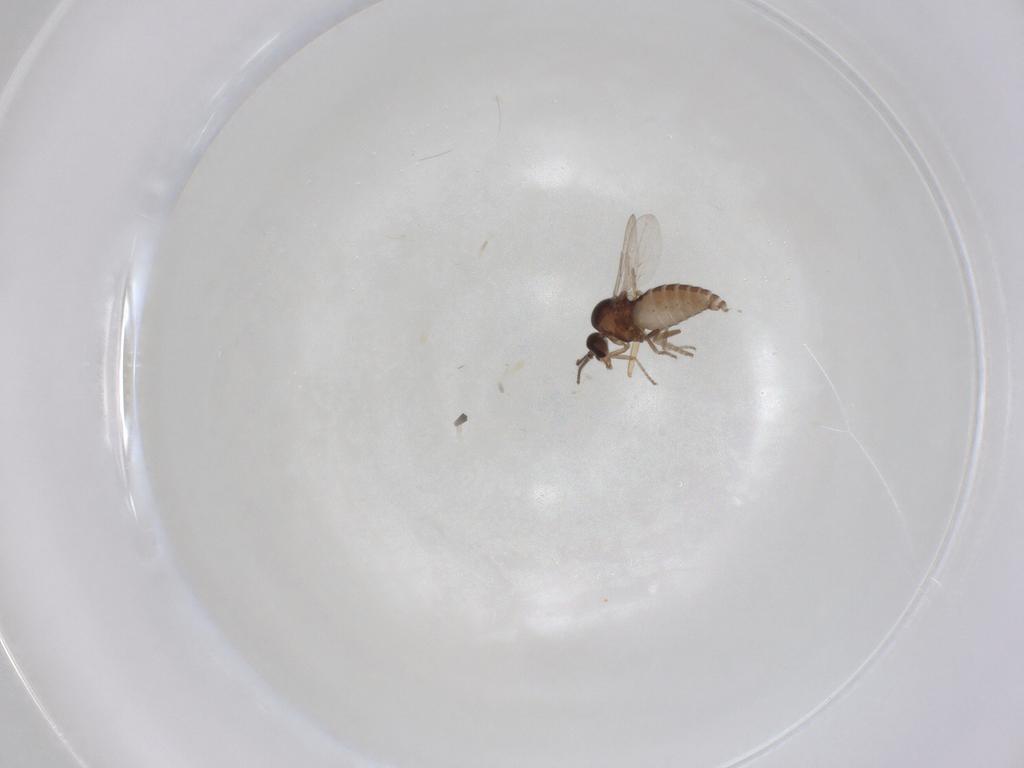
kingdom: Animalia
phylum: Arthropoda
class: Insecta
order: Diptera
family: Ceratopogonidae
